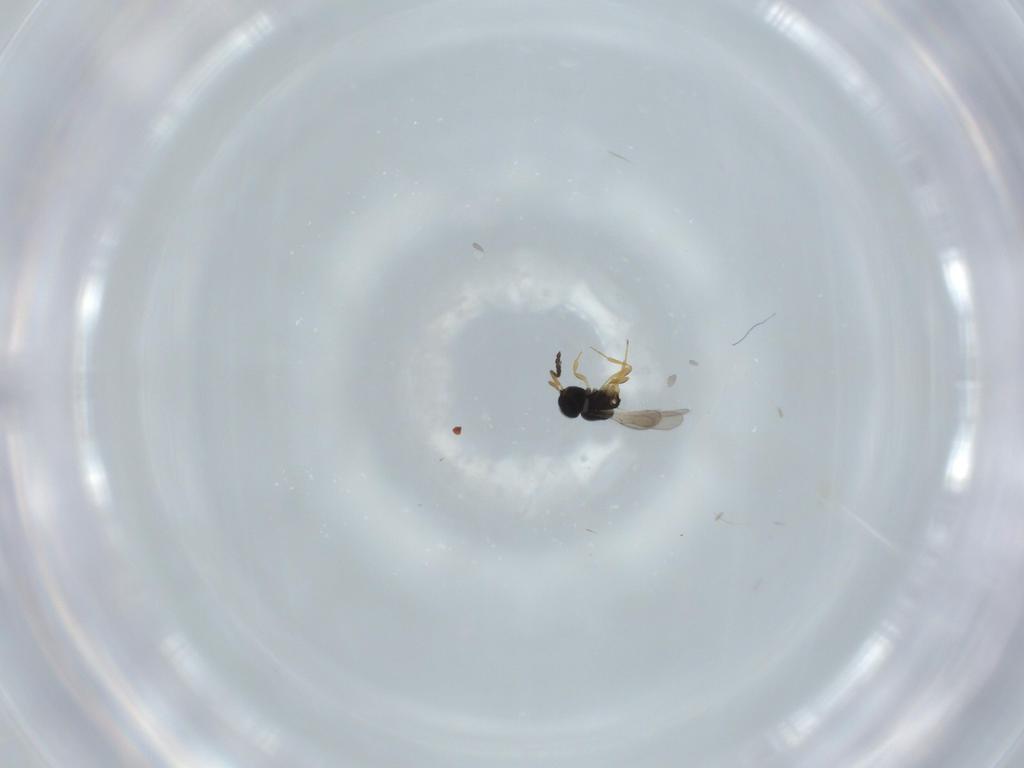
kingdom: Animalia
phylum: Arthropoda
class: Insecta
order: Hymenoptera
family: Scelionidae
